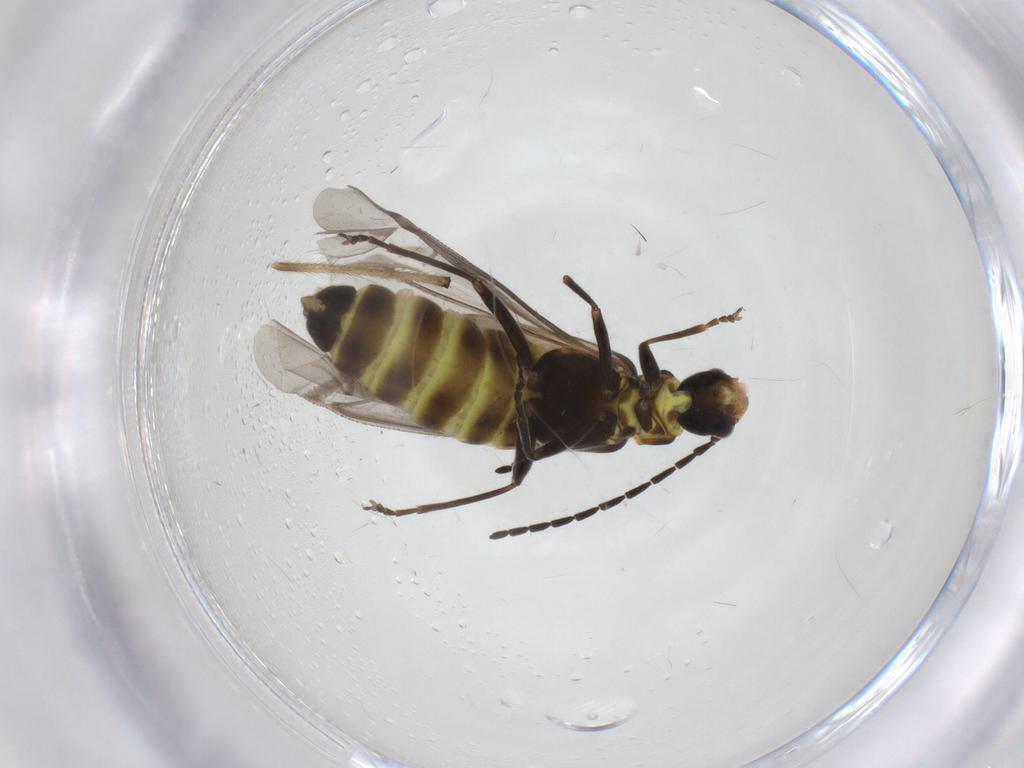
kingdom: Animalia
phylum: Arthropoda
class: Insecta
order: Coleoptera
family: Cantharidae
